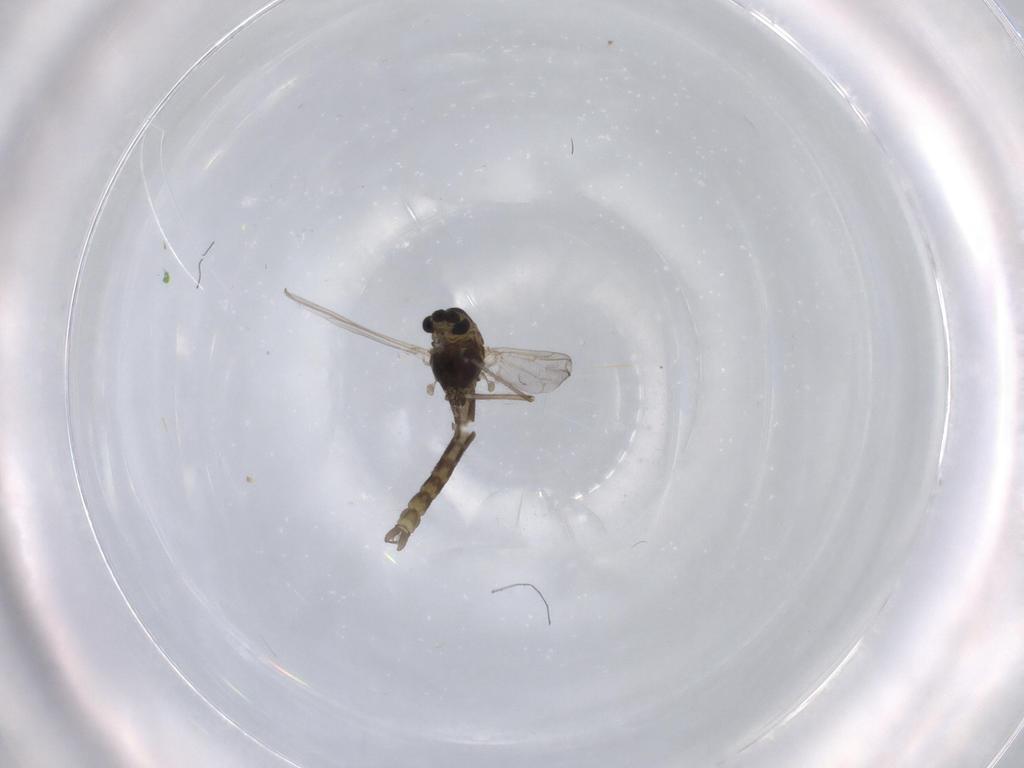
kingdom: Animalia
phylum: Arthropoda
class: Insecta
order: Diptera
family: Chironomidae
